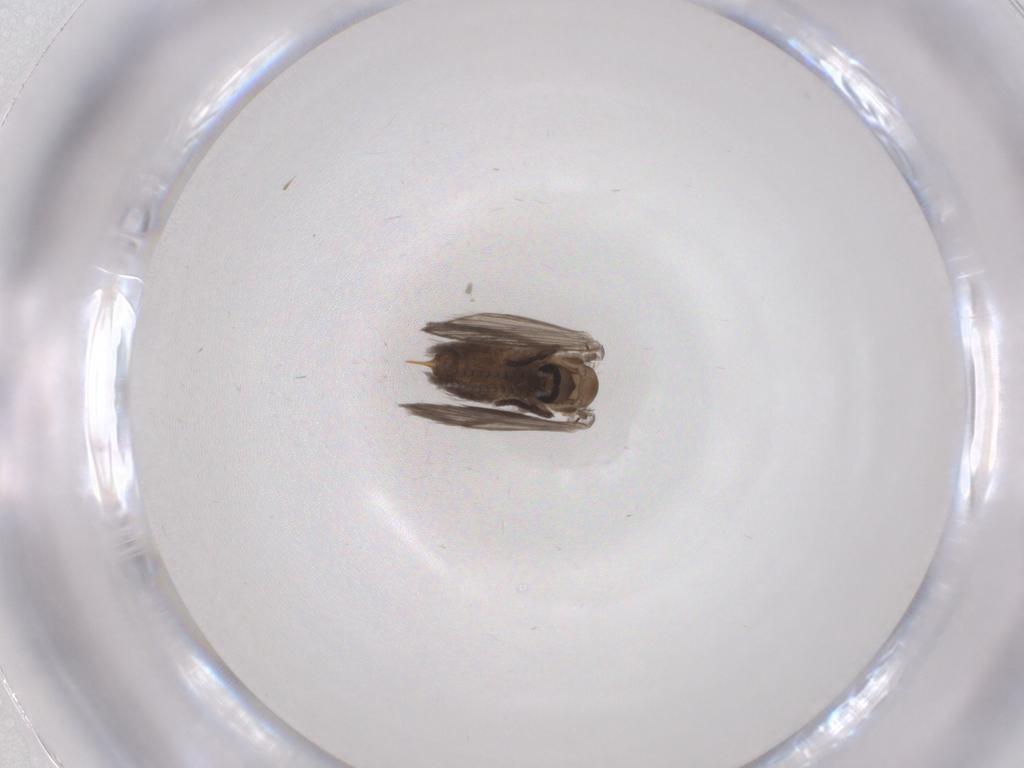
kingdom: Animalia
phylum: Arthropoda
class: Insecta
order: Diptera
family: Psychodidae
